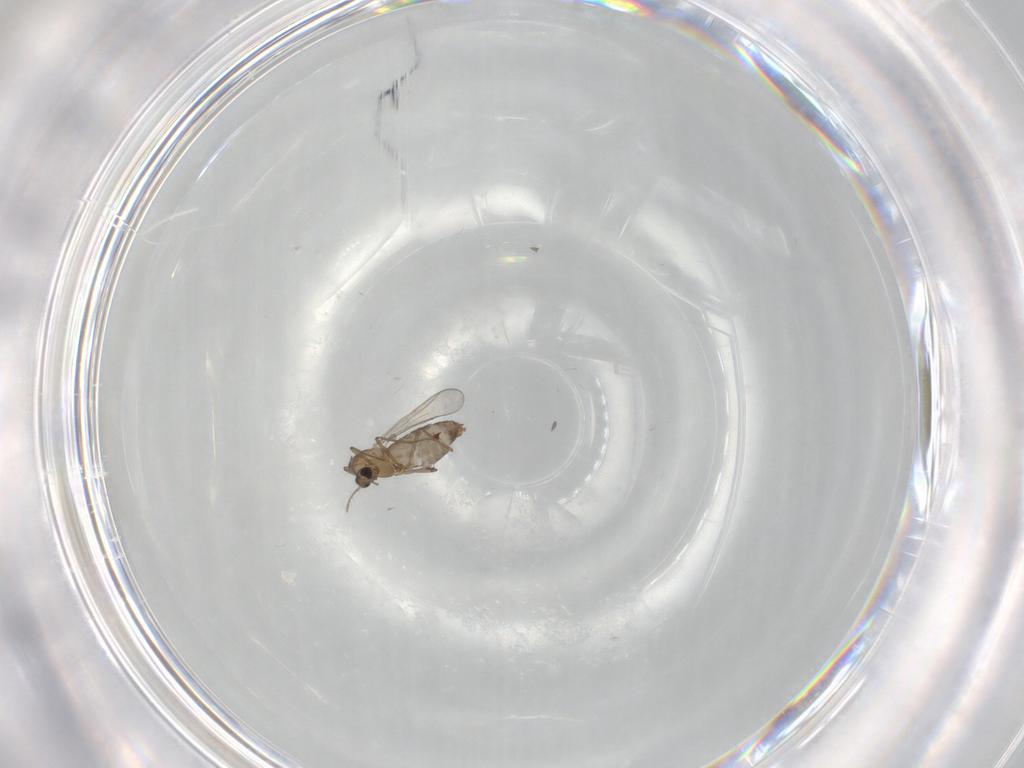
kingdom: Animalia
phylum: Arthropoda
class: Insecta
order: Diptera
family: Chironomidae
